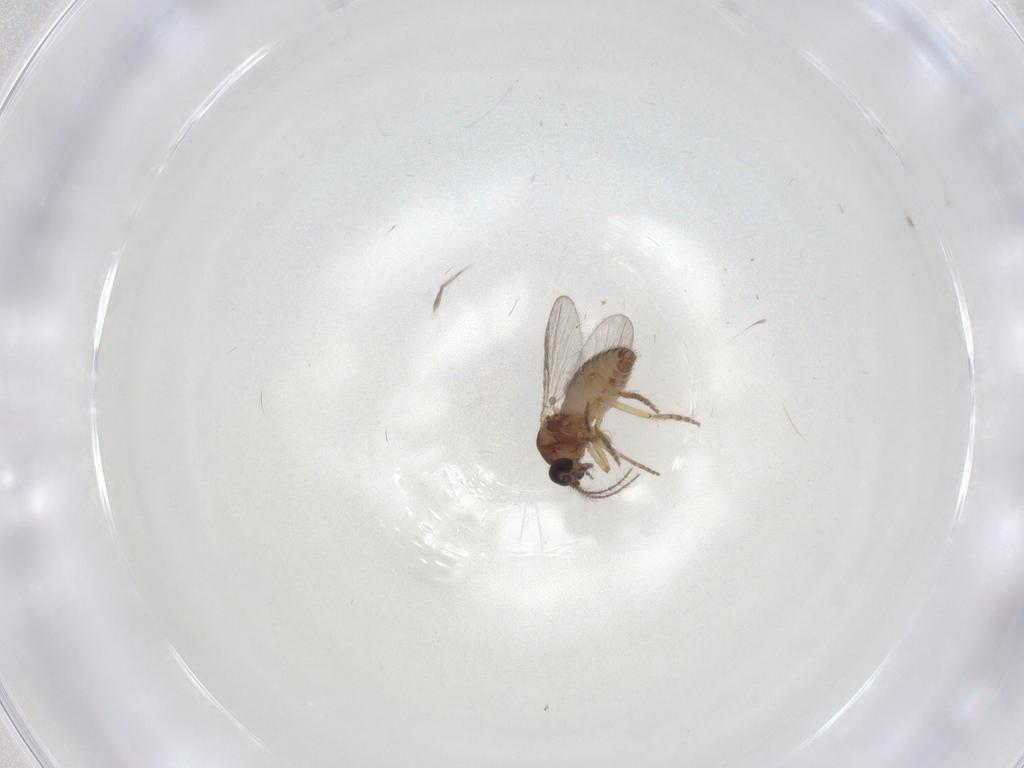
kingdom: Animalia
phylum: Arthropoda
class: Insecta
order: Diptera
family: Ceratopogonidae
